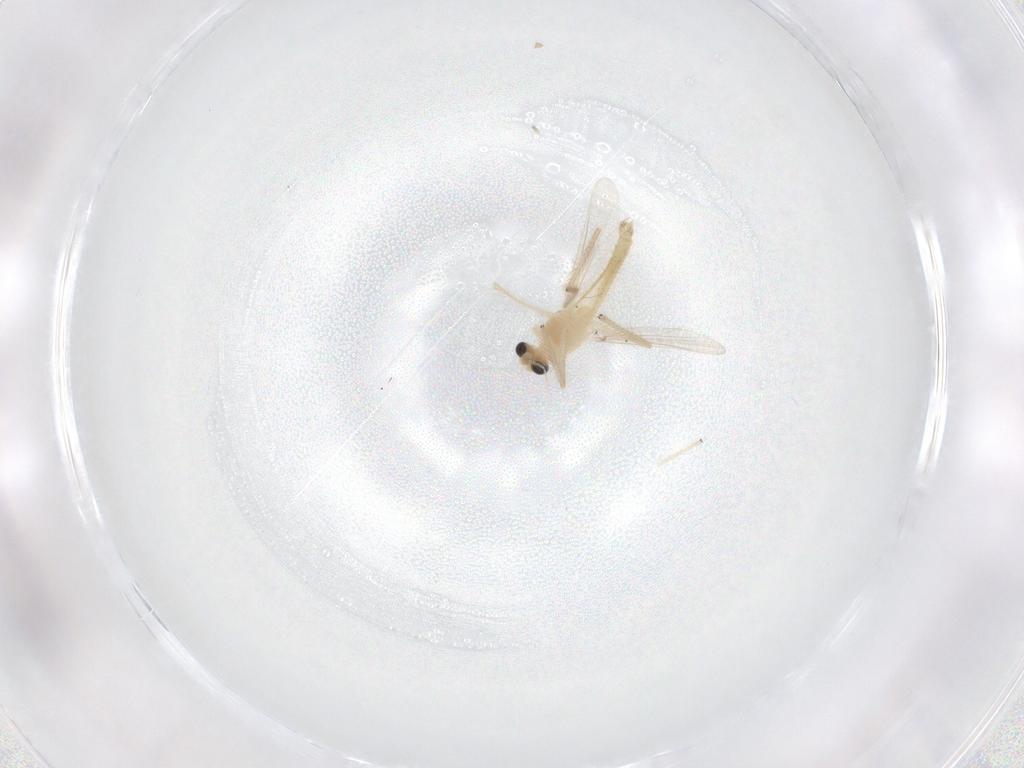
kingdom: Animalia
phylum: Arthropoda
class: Insecta
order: Diptera
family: Chironomidae
